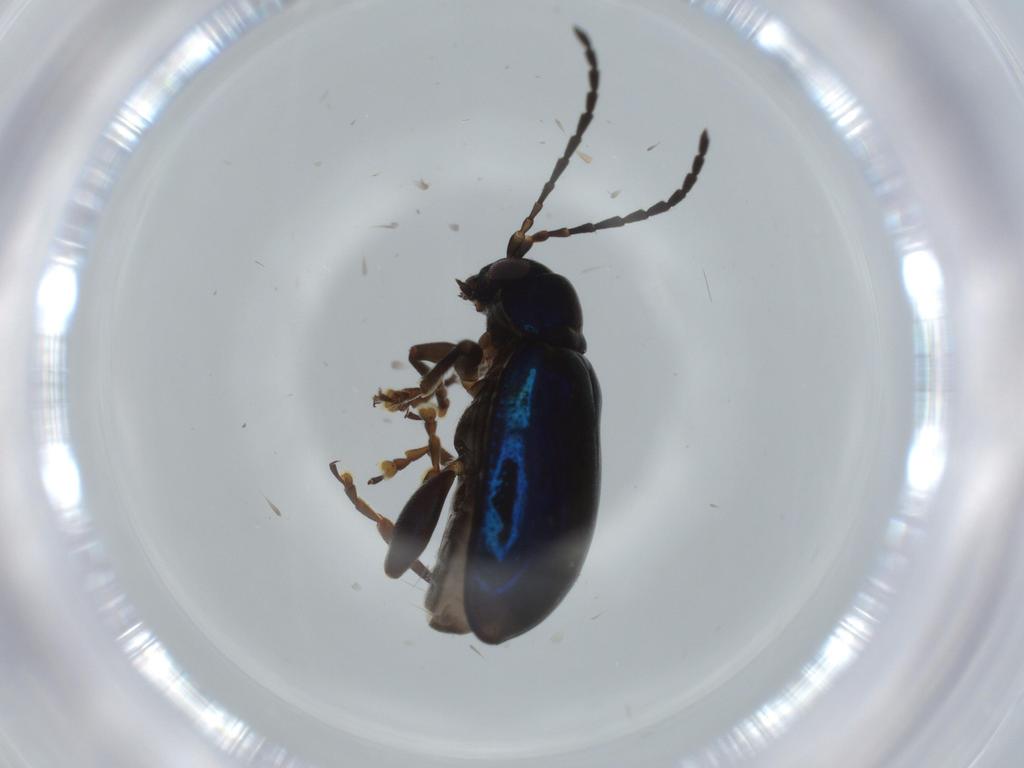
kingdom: Animalia
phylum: Arthropoda
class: Insecta
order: Coleoptera
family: Chrysomelidae
